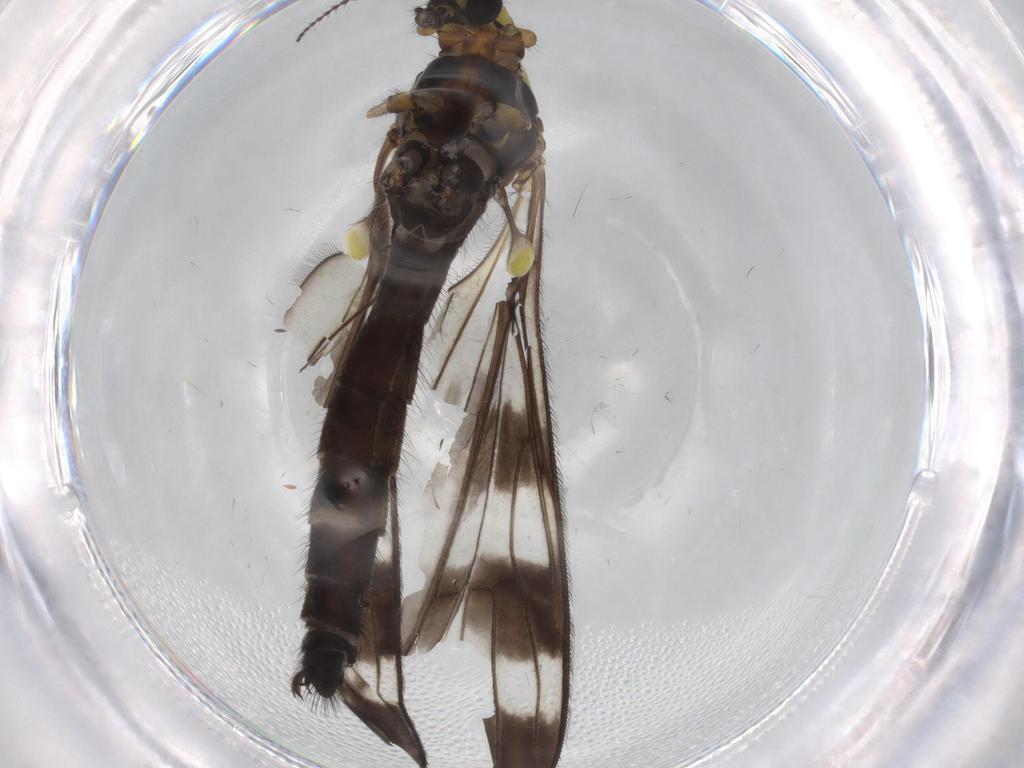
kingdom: Animalia
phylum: Arthropoda
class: Insecta
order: Diptera
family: Limoniidae
